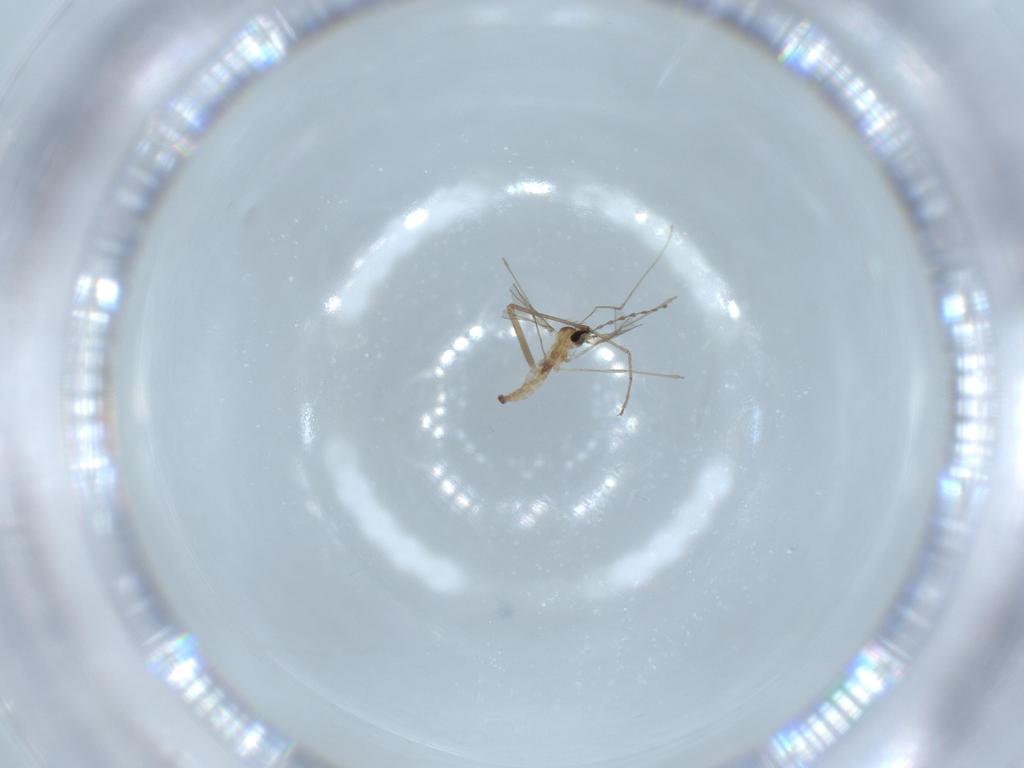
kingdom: Animalia
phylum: Arthropoda
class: Insecta
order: Diptera
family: Cecidomyiidae
